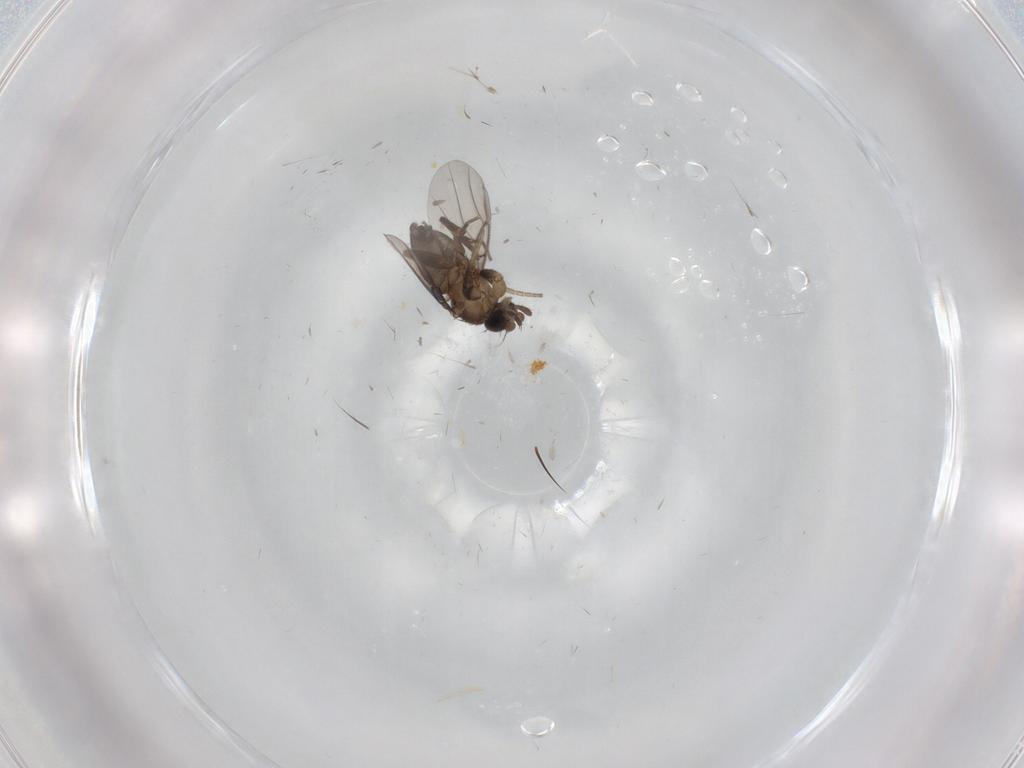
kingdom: Animalia
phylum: Arthropoda
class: Insecta
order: Diptera
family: Phoridae
